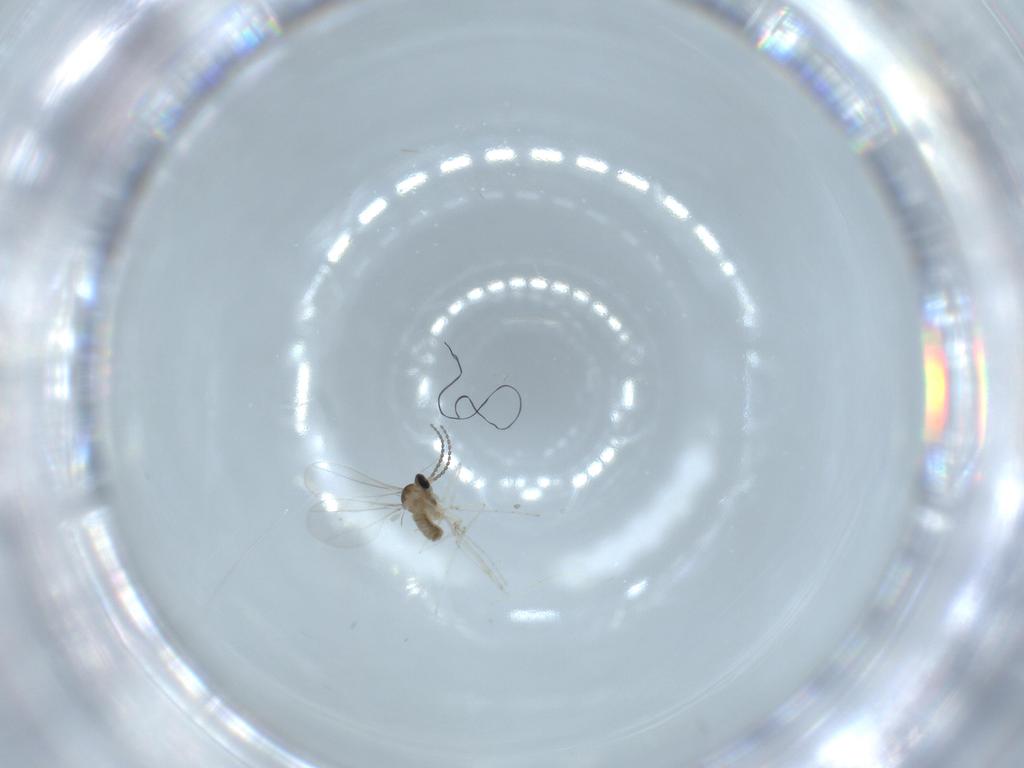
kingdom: Animalia
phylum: Arthropoda
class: Insecta
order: Diptera
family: Cecidomyiidae
